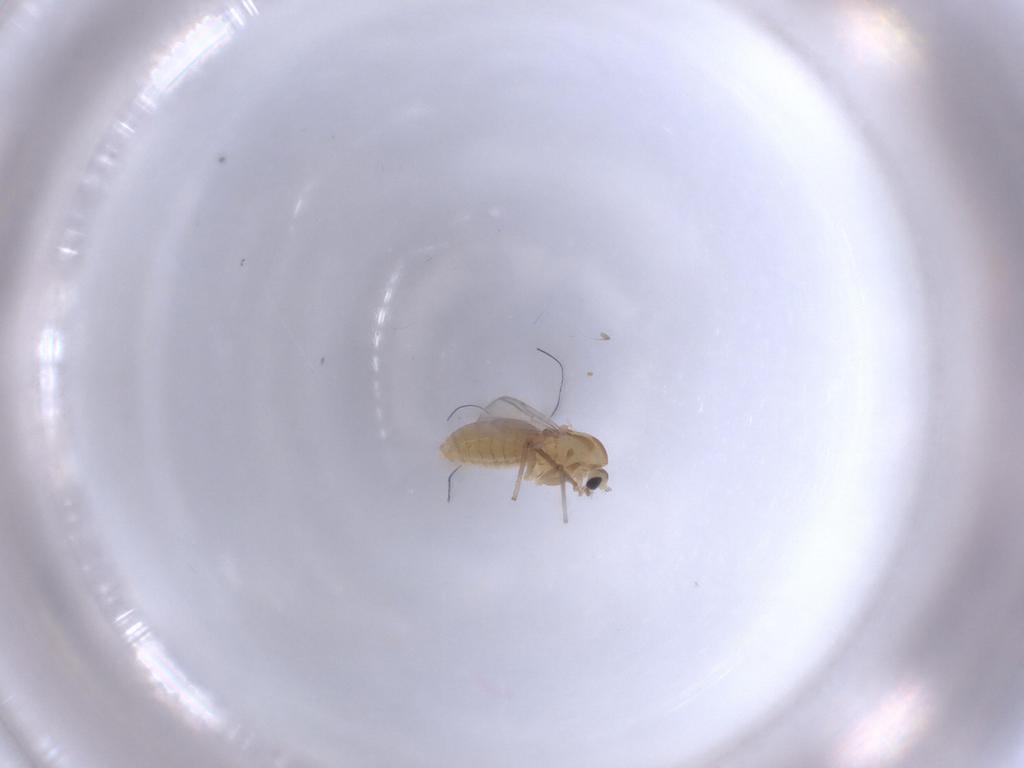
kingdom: Animalia
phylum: Arthropoda
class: Insecta
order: Diptera
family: Chironomidae
